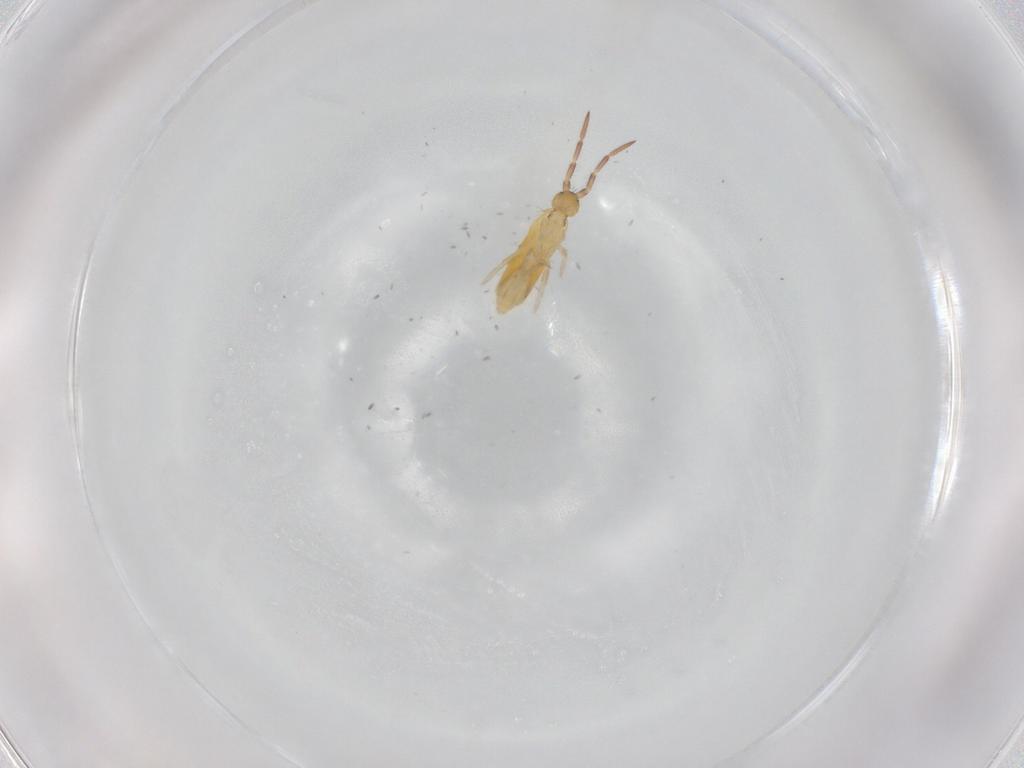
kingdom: Animalia
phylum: Arthropoda
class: Collembola
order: Entomobryomorpha
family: Entomobryidae
